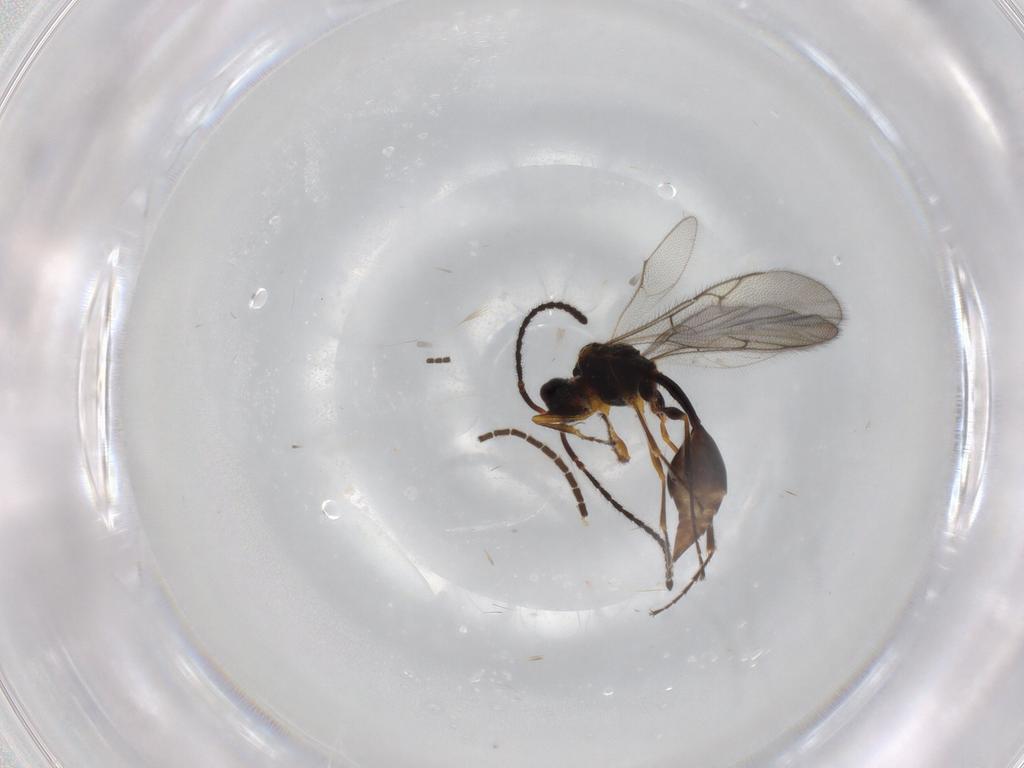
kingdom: Animalia
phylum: Arthropoda
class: Insecta
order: Hymenoptera
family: Diapriidae
